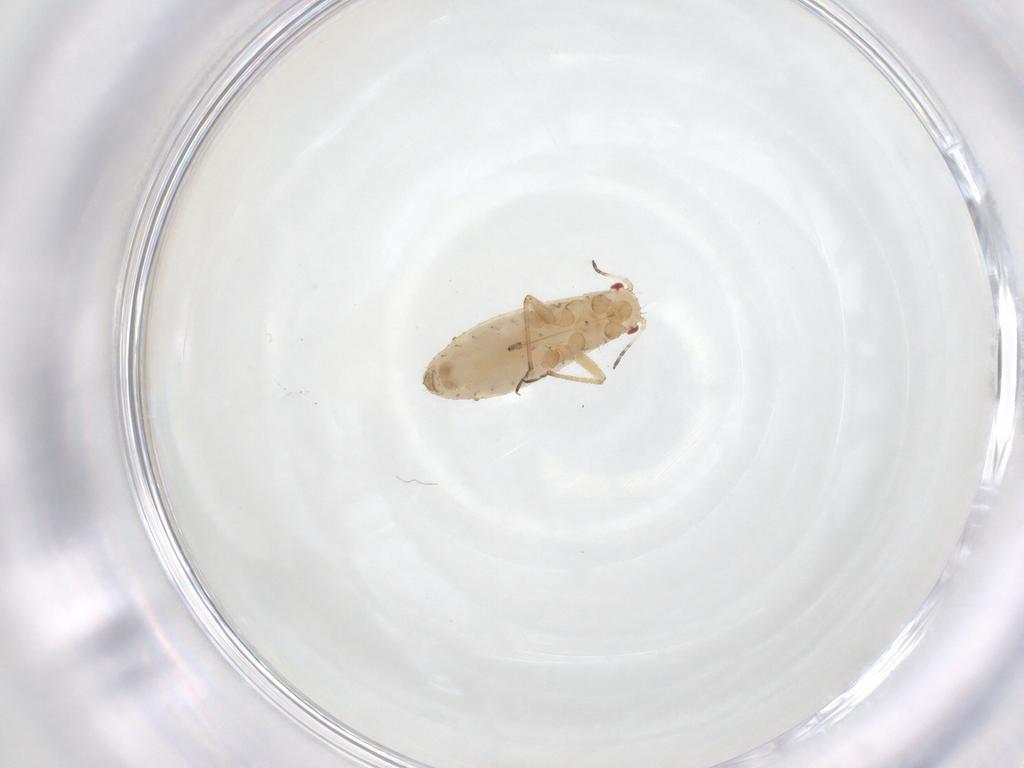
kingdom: Animalia
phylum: Arthropoda
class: Insecta
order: Hemiptera
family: Aphididae
